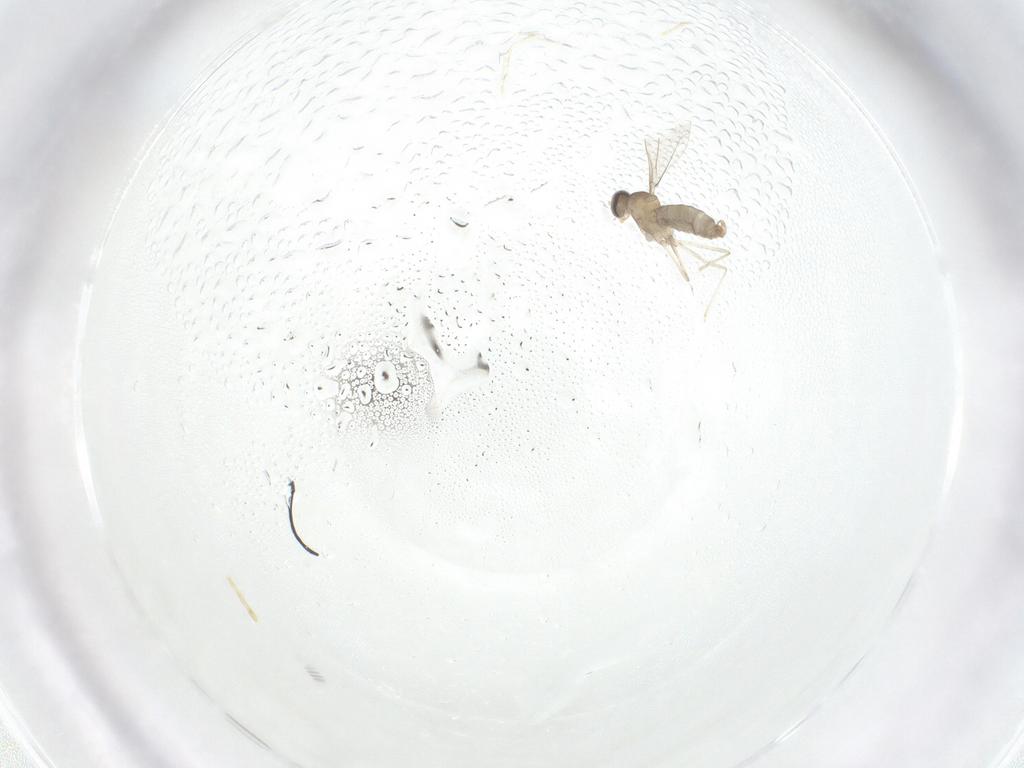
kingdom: Animalia
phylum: Arthropoda
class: Insecta
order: Diptera
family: Cecidomyiidae
